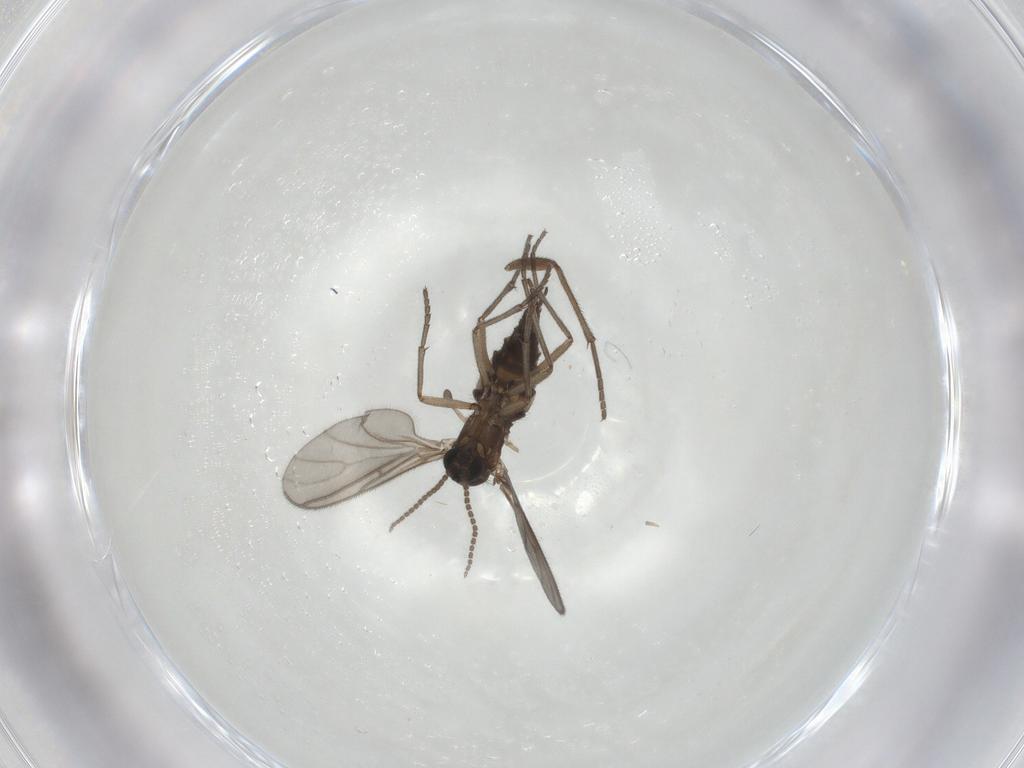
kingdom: Animalia
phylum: Arthropoda
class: Insecta
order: Diptera
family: Sciaridae
